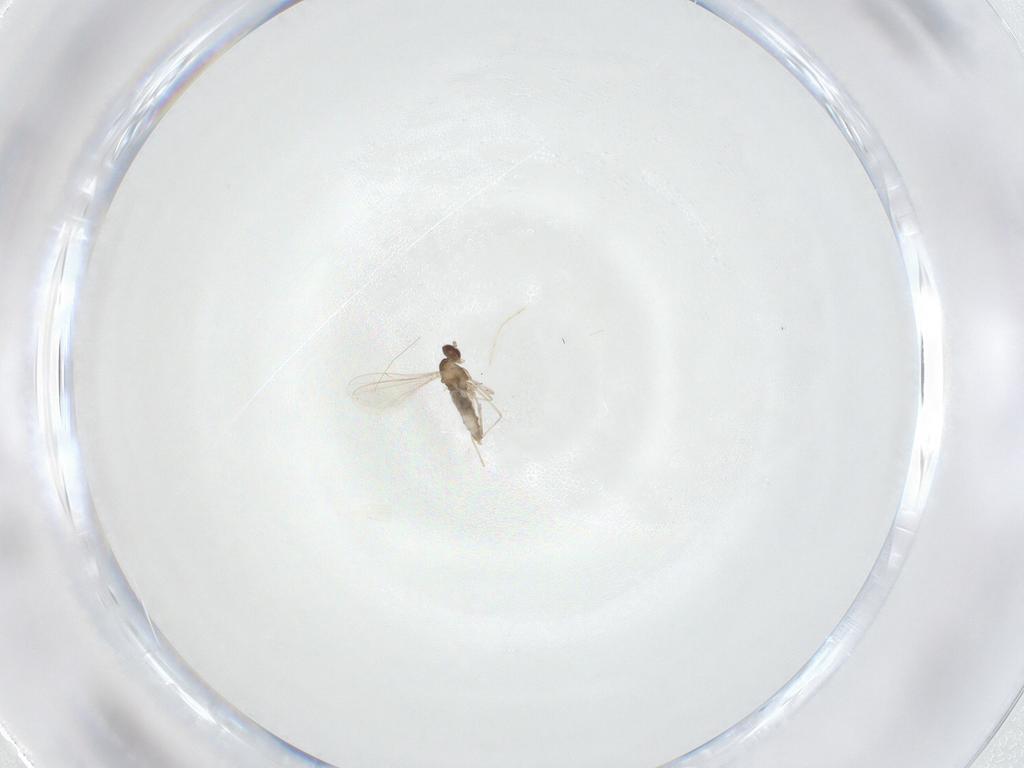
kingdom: Animalia
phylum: Arthropoda
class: Insecta
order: Diptera
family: Cecidomyiidae
